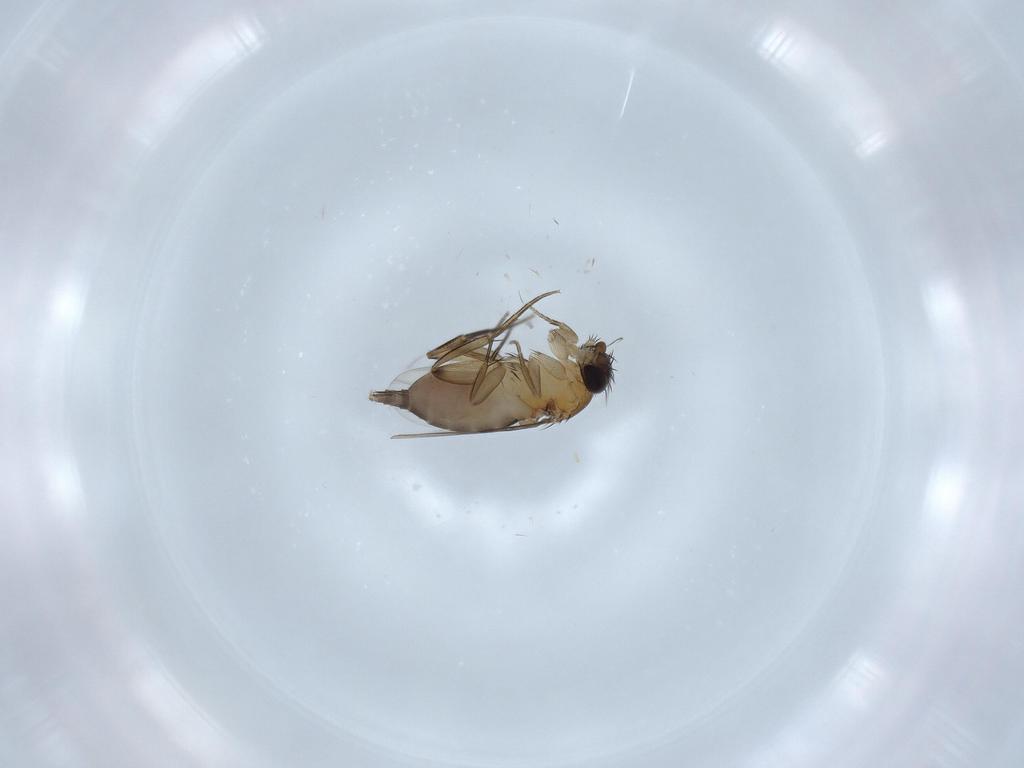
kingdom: Animalia
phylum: Arthropoda
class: Insecta
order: Diptera
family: Phoridae
